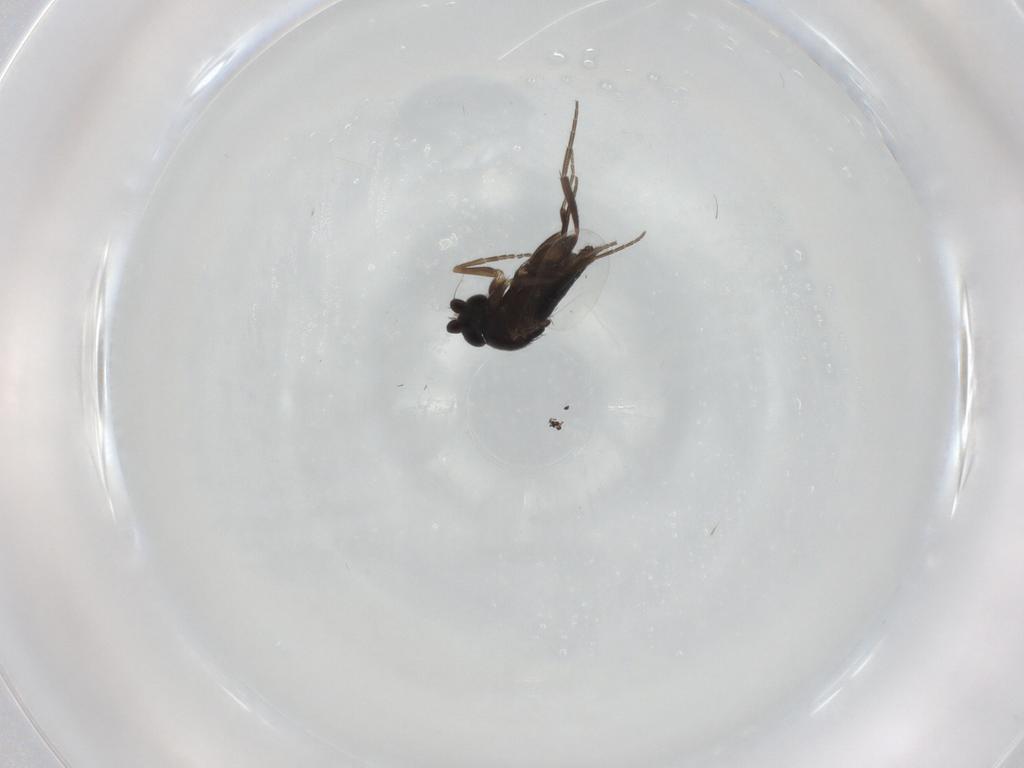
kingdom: Animalia
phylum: Arthropoda
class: Insecta
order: Diptera
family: Phoridae
